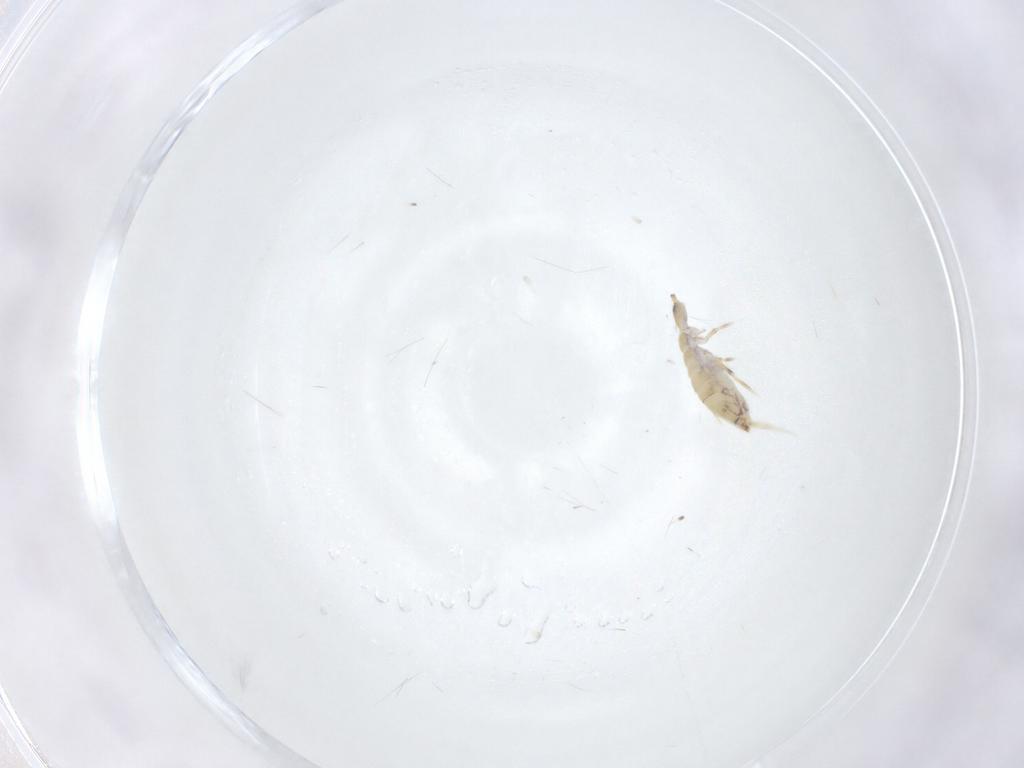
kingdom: Animalia
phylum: Arthropoda
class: Collembola
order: Entomobryomorpha
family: Entomobryidae
